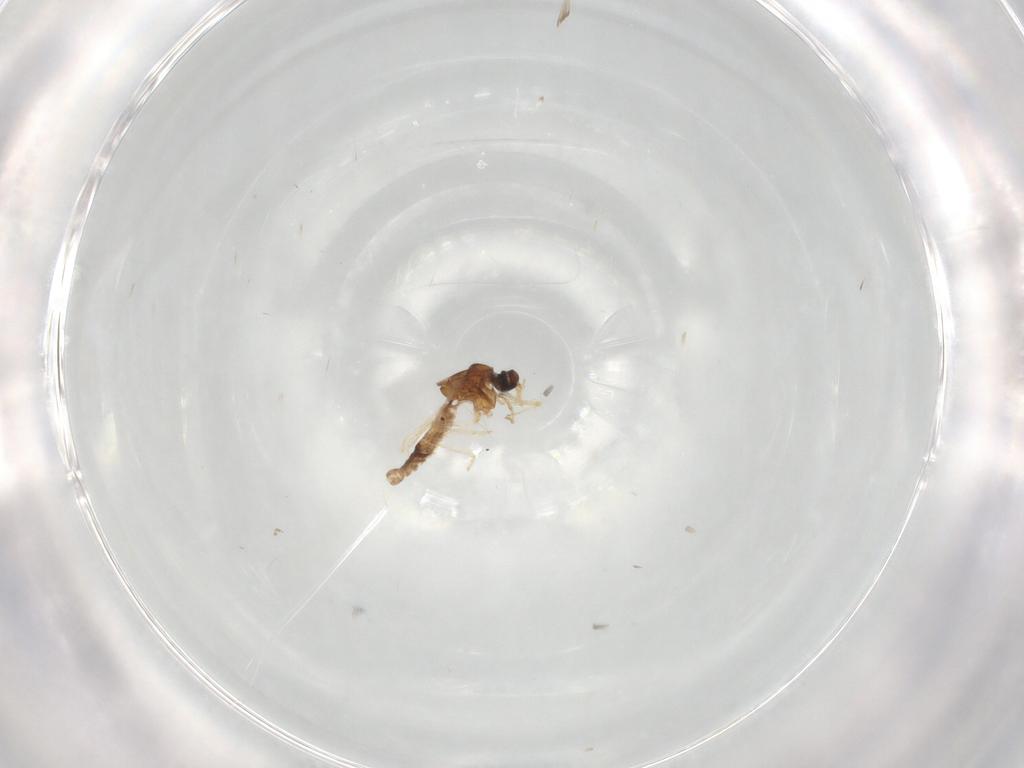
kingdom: Animalia
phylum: Arthropoda
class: Insecta
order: Diptera
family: Ceratopogonidae
